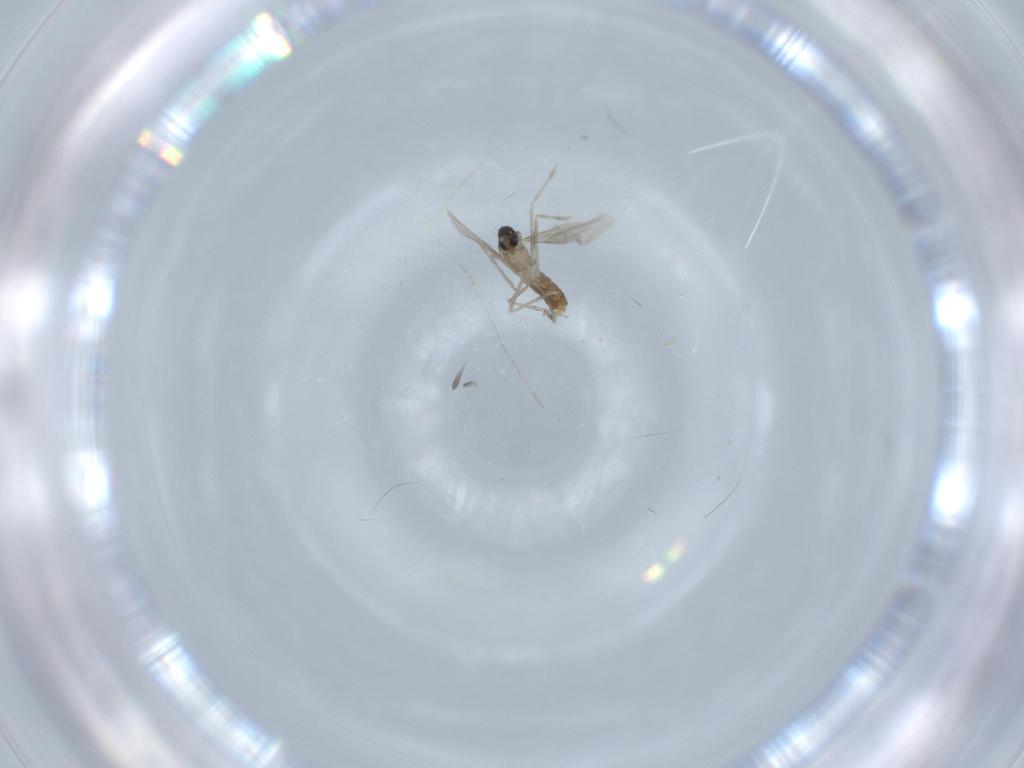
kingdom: Animalia
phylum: Arthropoda
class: Insecta
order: Diptera
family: Cecidomyiidae
